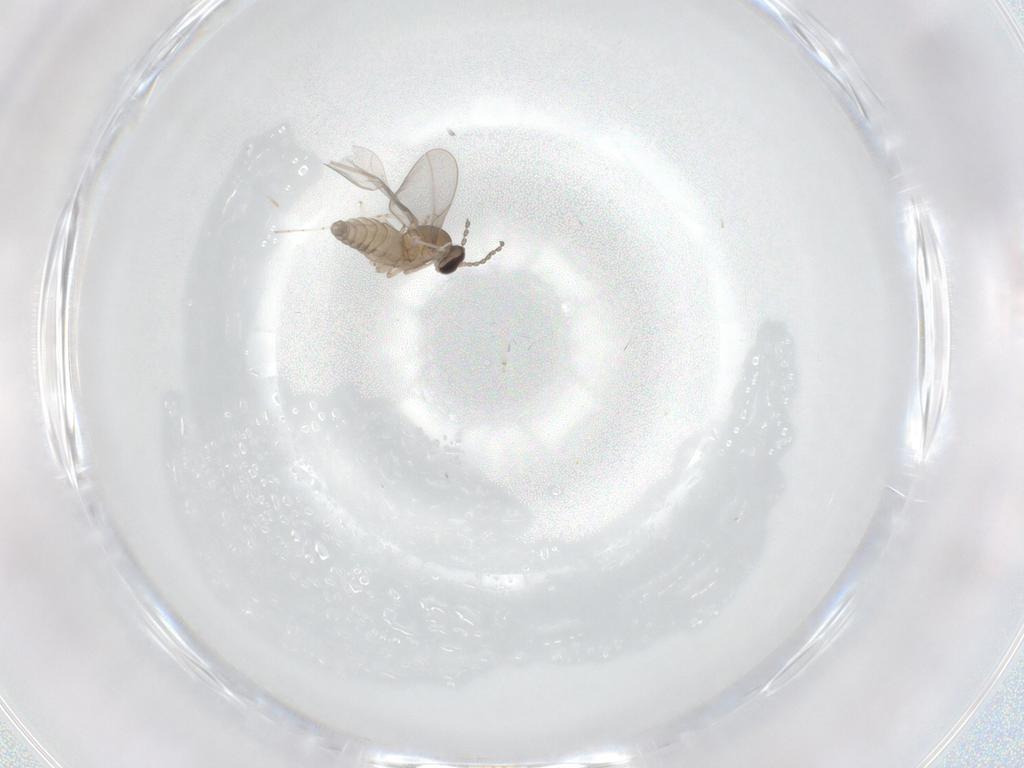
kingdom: Animalia
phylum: Arthropoda
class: Insecta
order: Diptera
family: Cecidomyiidae
